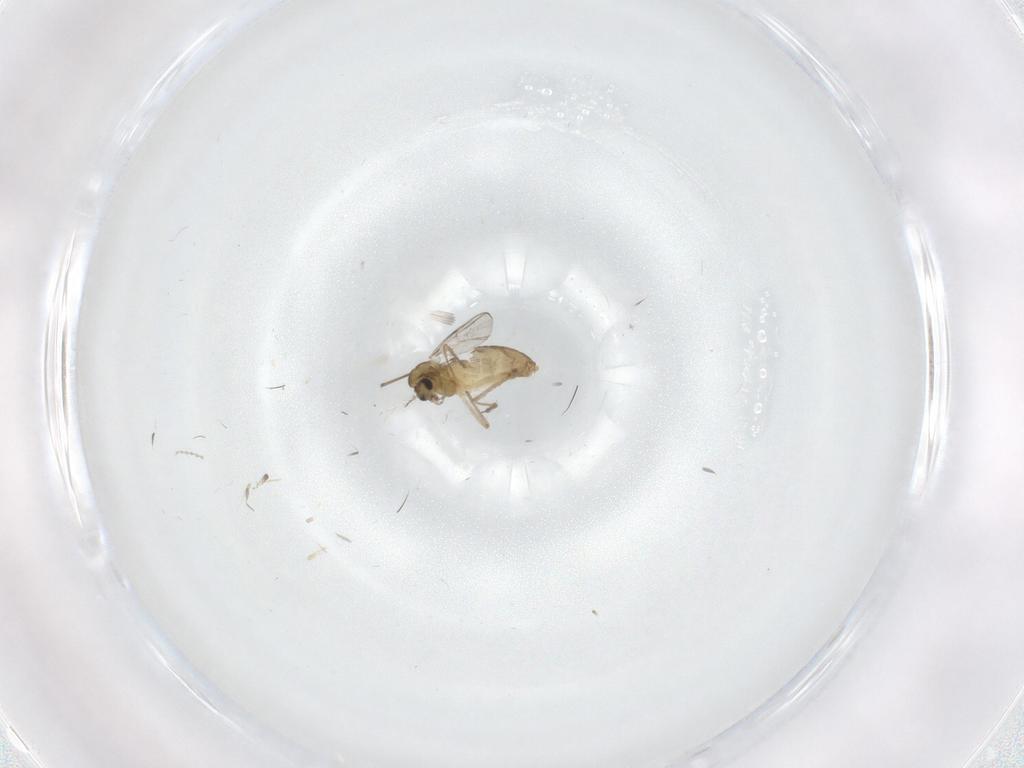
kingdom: Animalia
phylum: Arthropoda
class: Insecta
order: Diptera
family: Chironomidae
